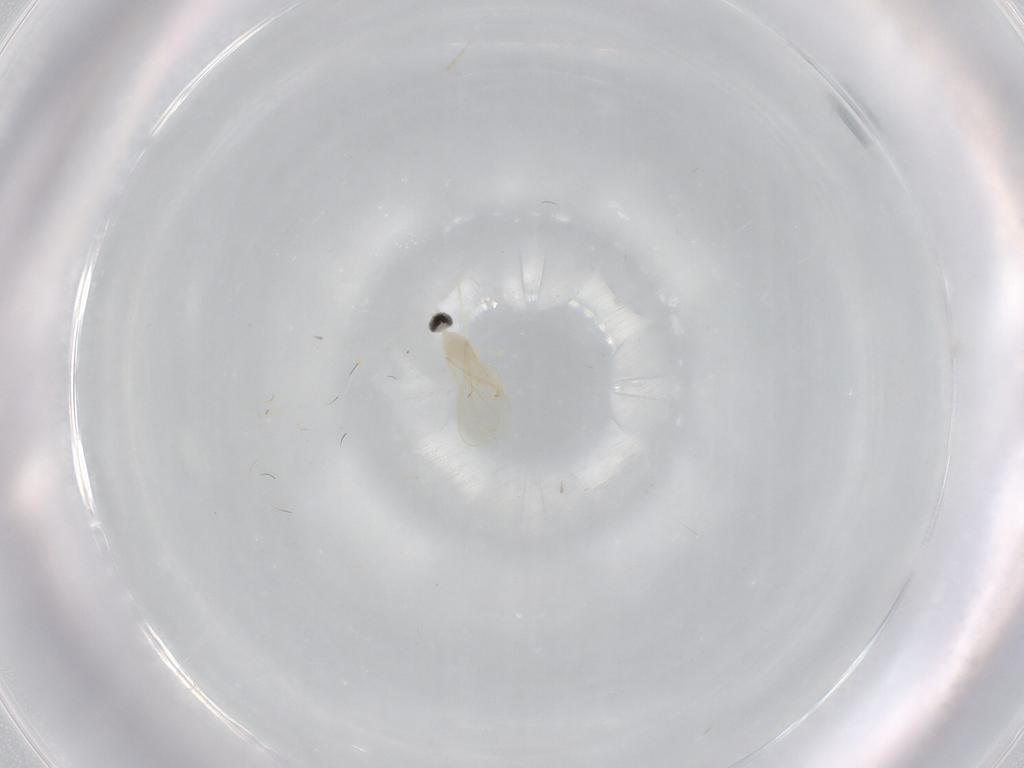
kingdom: Animalia
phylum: Arthropoda
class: Insecta
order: Diptera
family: Cecidomyiidae
